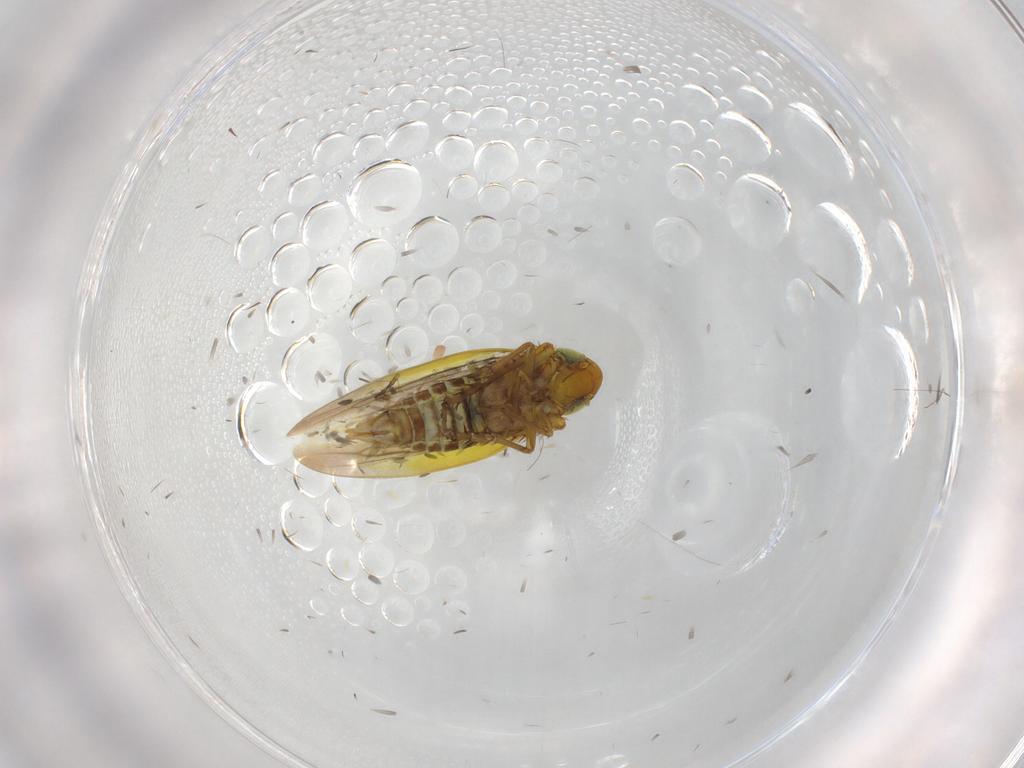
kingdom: Animalia
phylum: Arthropoda
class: Insecta
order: Diptera
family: Chironomidae
